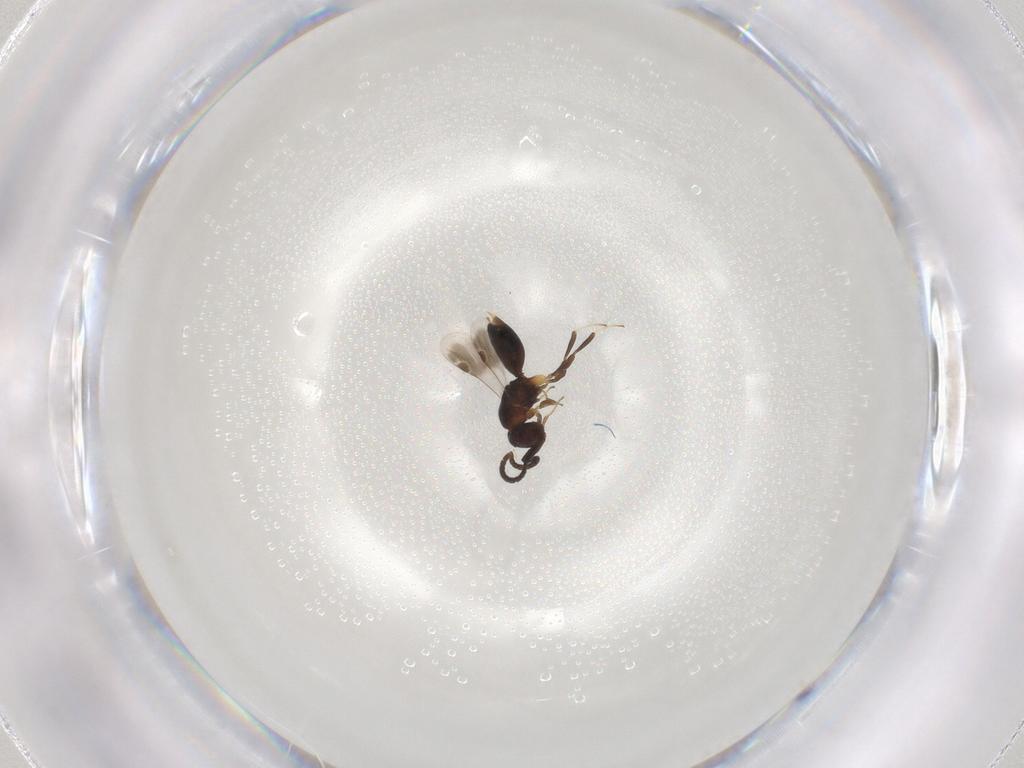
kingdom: Animalia
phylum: Arthropoda
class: Insecta
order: Hymenoptera
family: Megaspilidae
